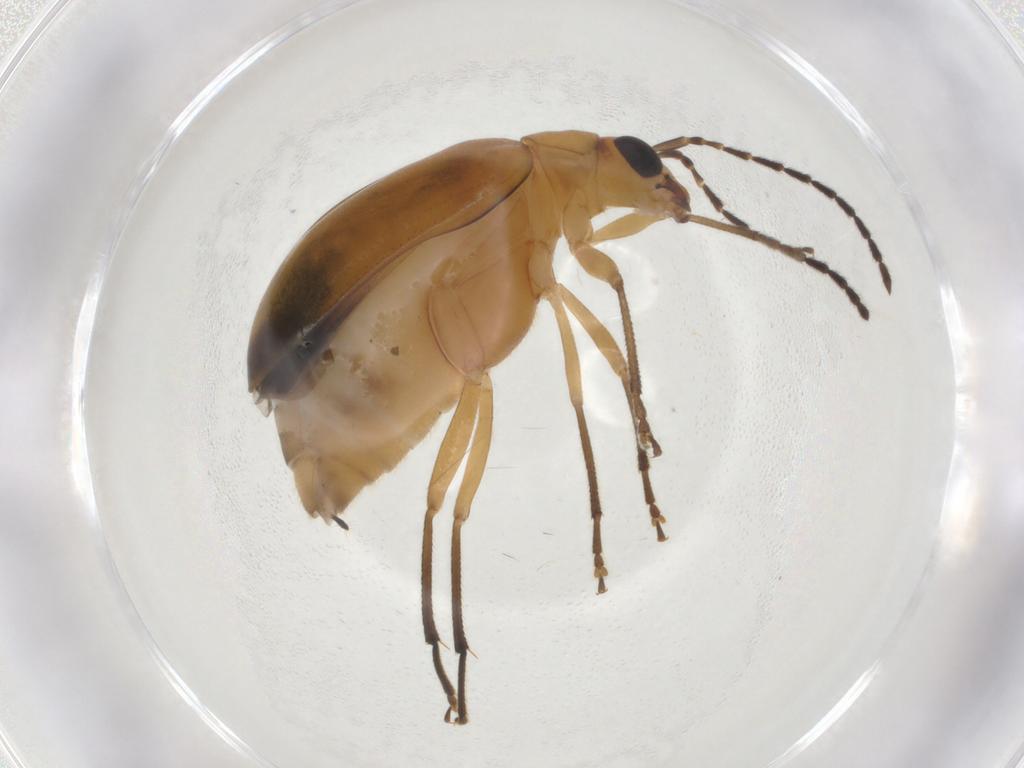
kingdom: Animalia
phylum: Arthropoda
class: Insecta
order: Coleoptera
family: Chrysomelidae
